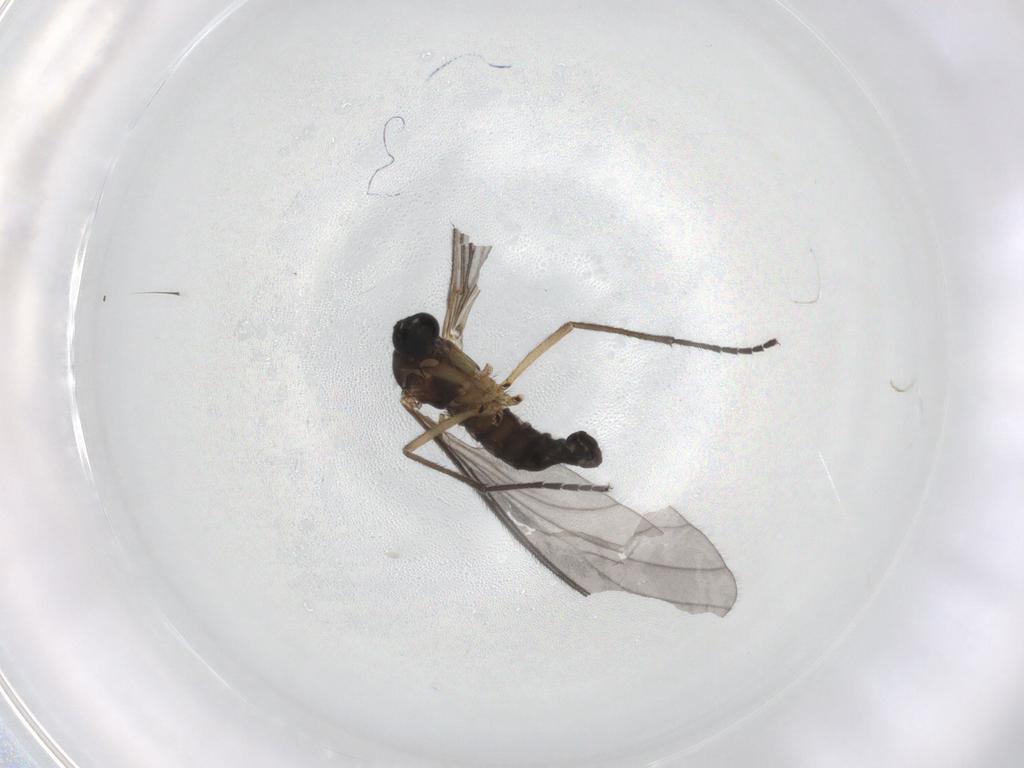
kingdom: Animalia
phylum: Arthropoda
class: Insecta
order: Diptera
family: Sciaridae
